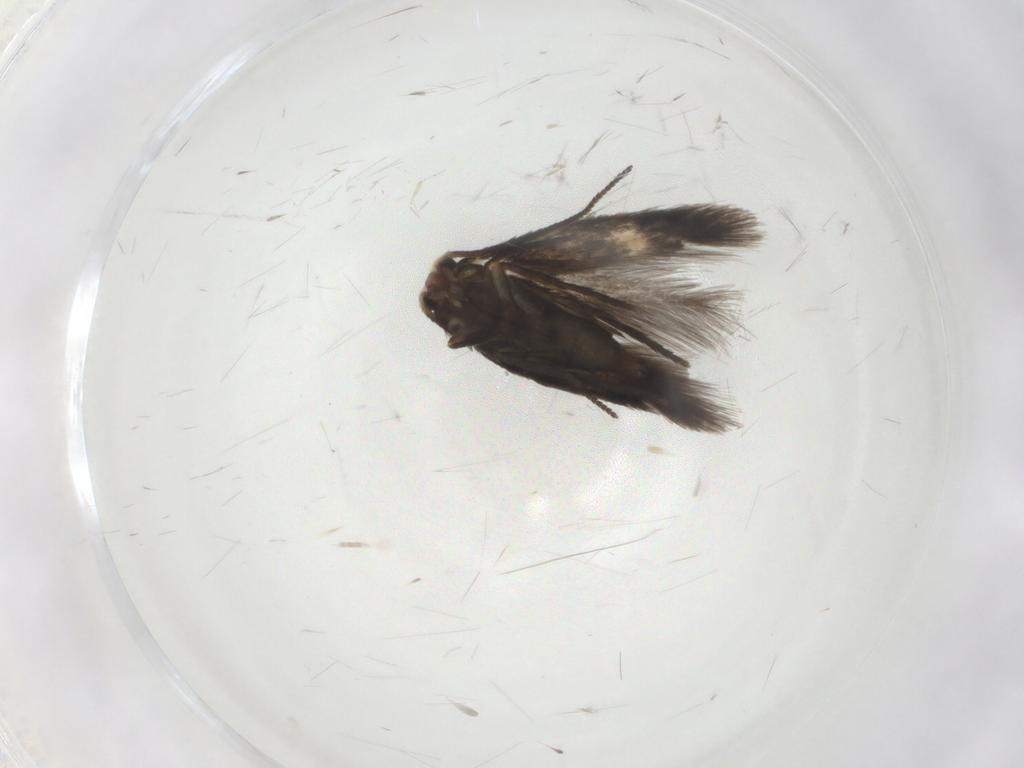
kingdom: Animalia
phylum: Arthropoda
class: Insecta
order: Lepidoptera
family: Nepticulidae
